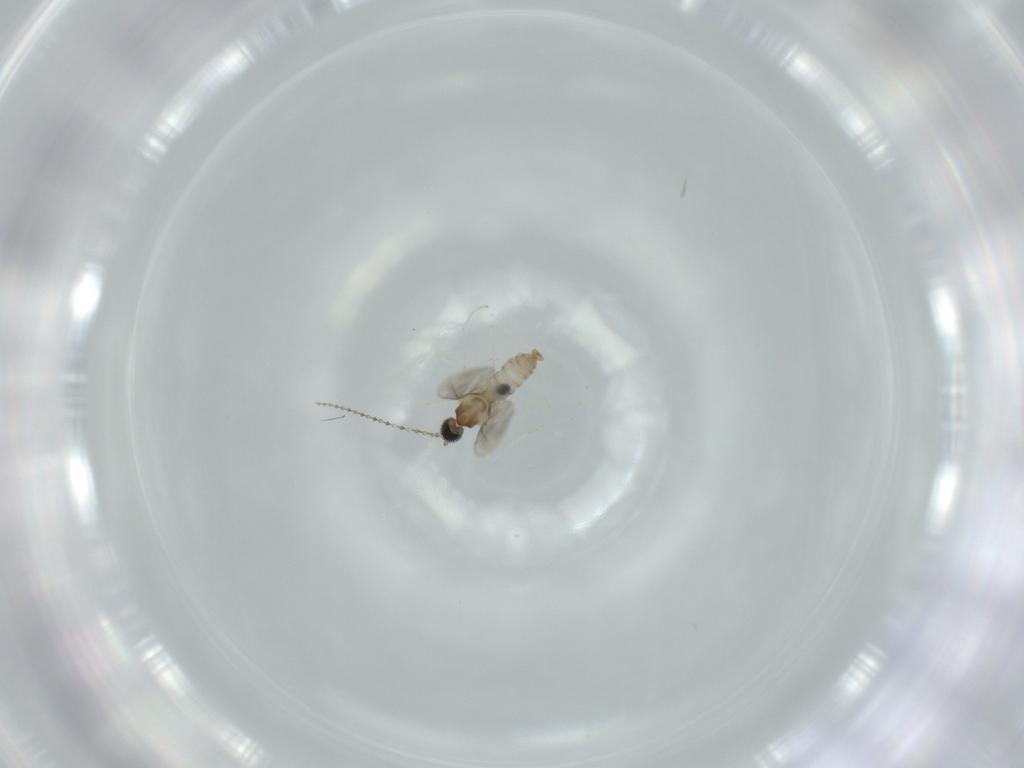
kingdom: Animalia
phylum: Arthropoda
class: Insecta
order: Diptera
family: Cecidomyiidae
